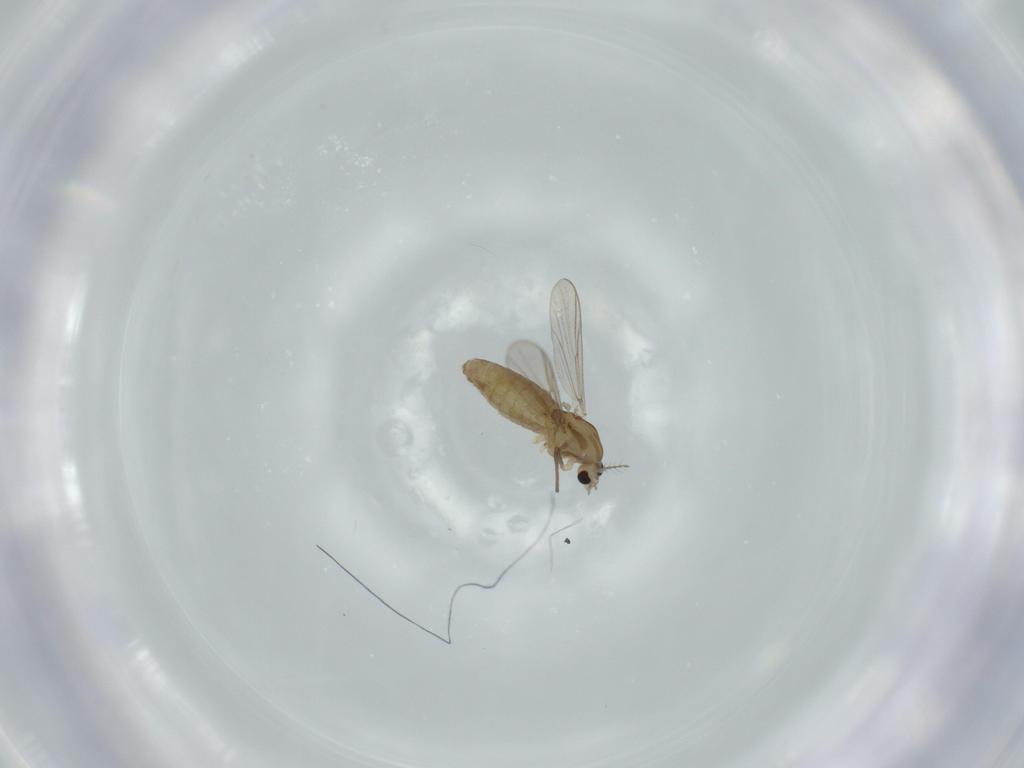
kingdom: Animalia
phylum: Arthropoda
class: Insecta
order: Diptera
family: Chironomidae
